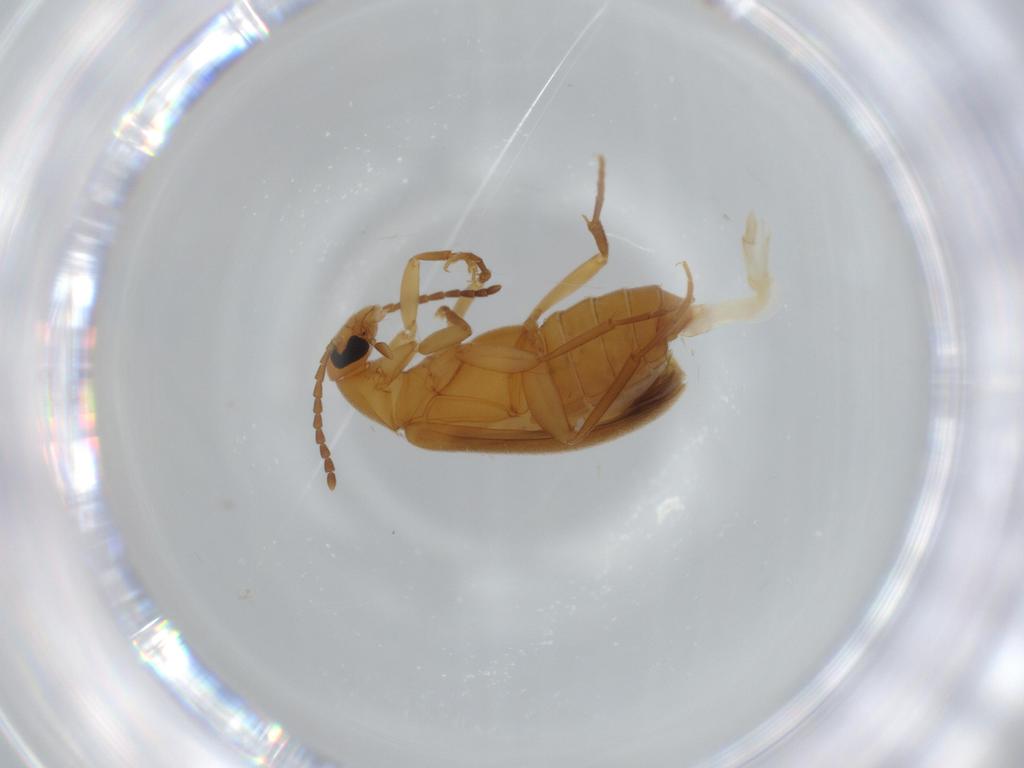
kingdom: Animalia
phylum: Arthropoda
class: Insecta
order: Coleoptera
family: Scraptiidae
